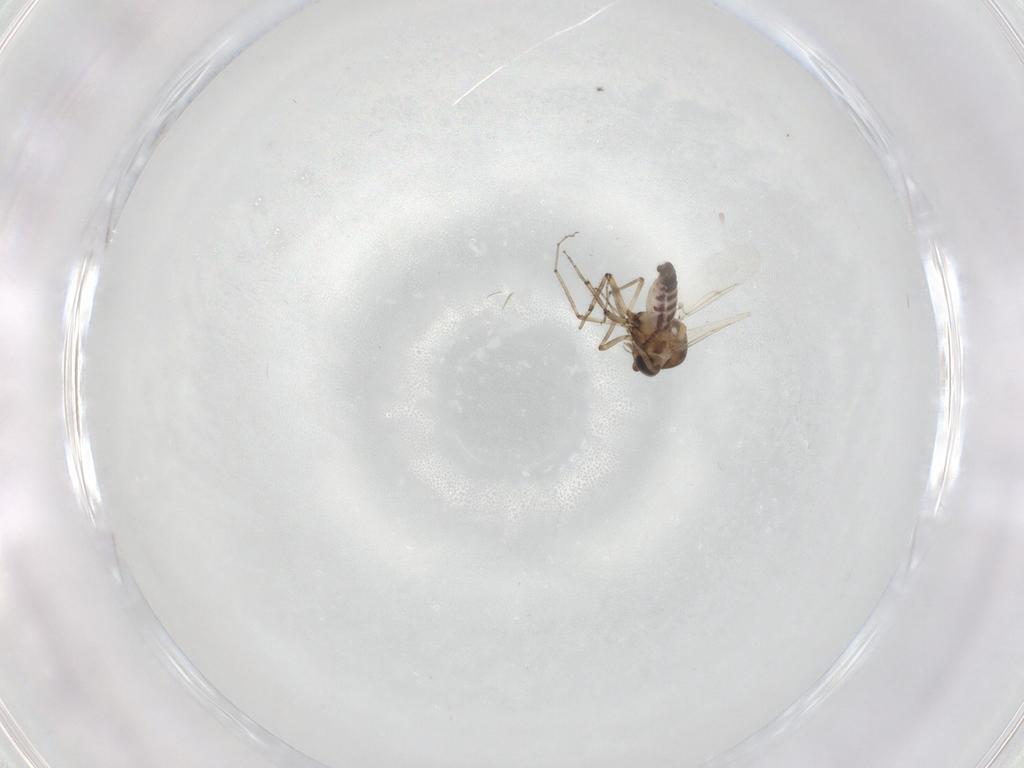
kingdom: Animalia
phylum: Arthropoda
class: Insecta
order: Diptera
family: Ceratopogonidae
